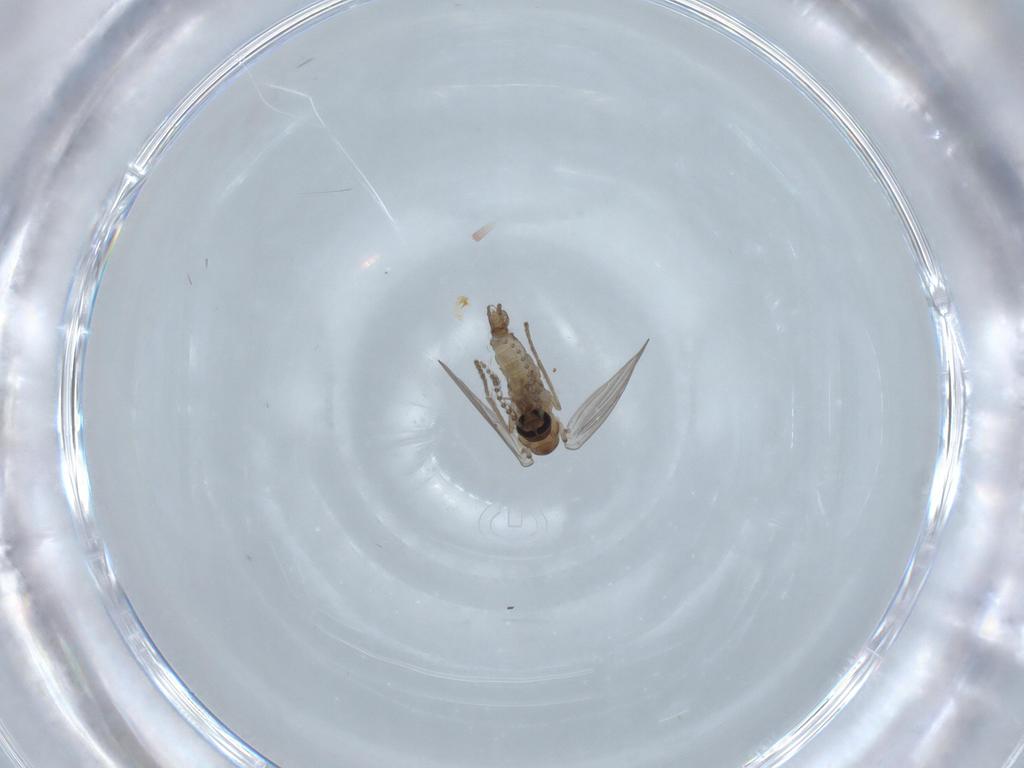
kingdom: Animalia
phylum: Arthropoda
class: Insecta
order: Diptera
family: Psychodidae
